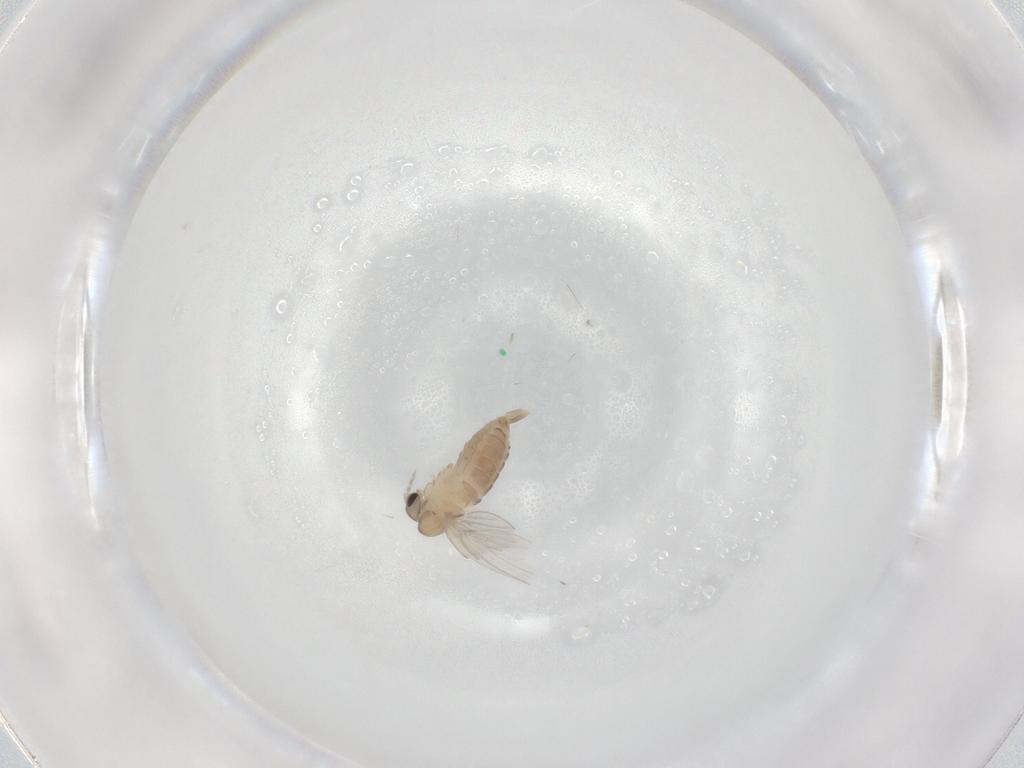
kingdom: Animalia
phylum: Arthropoda
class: Insecta
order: Diptera
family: Psychodidae
